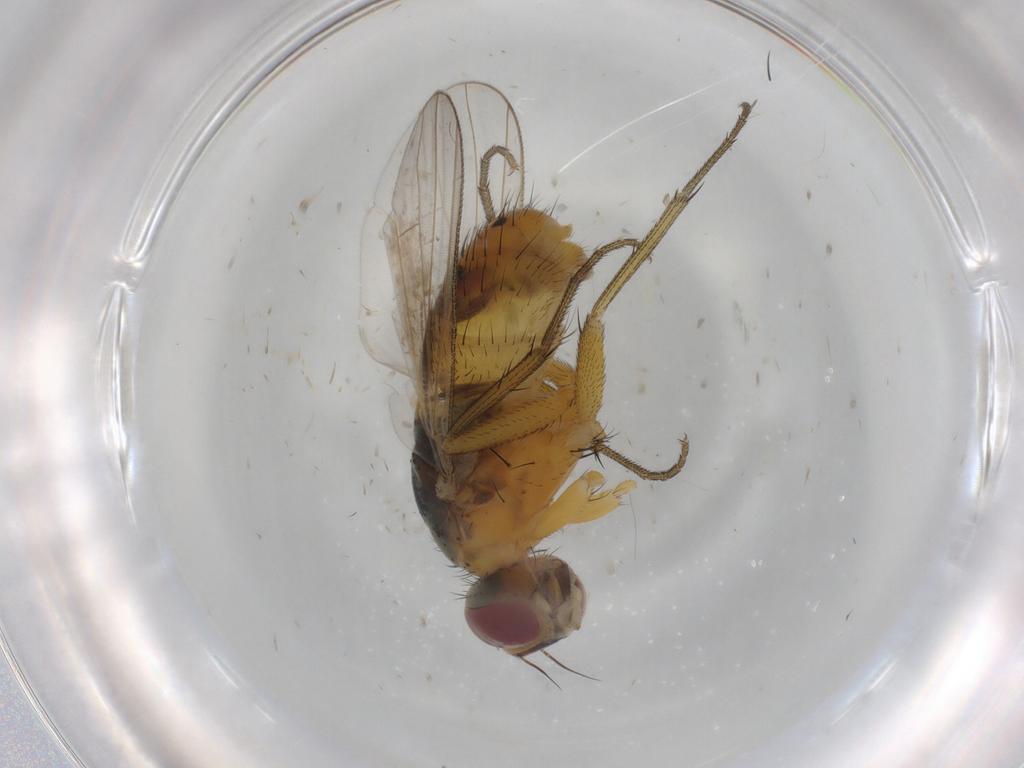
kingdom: Animalia
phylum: Arthropoda
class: Insecta
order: Diptera
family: Muscidae
